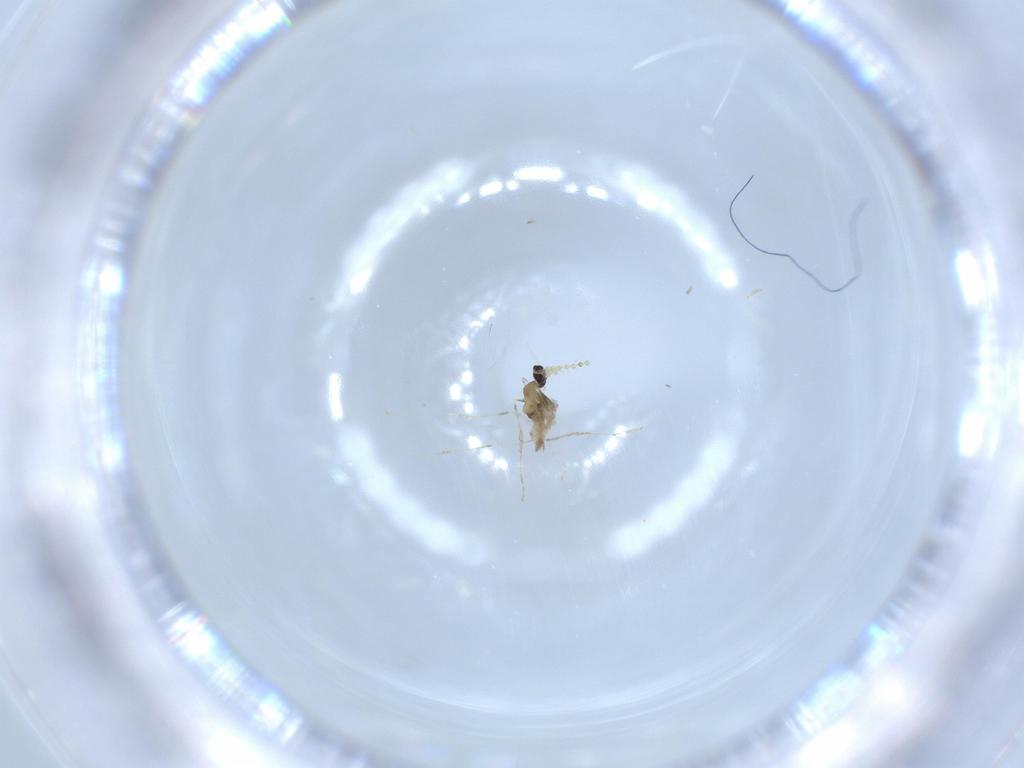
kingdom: Animalia
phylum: Arthropoda
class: Insecta
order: Diptera
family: Cecidomyiidae
